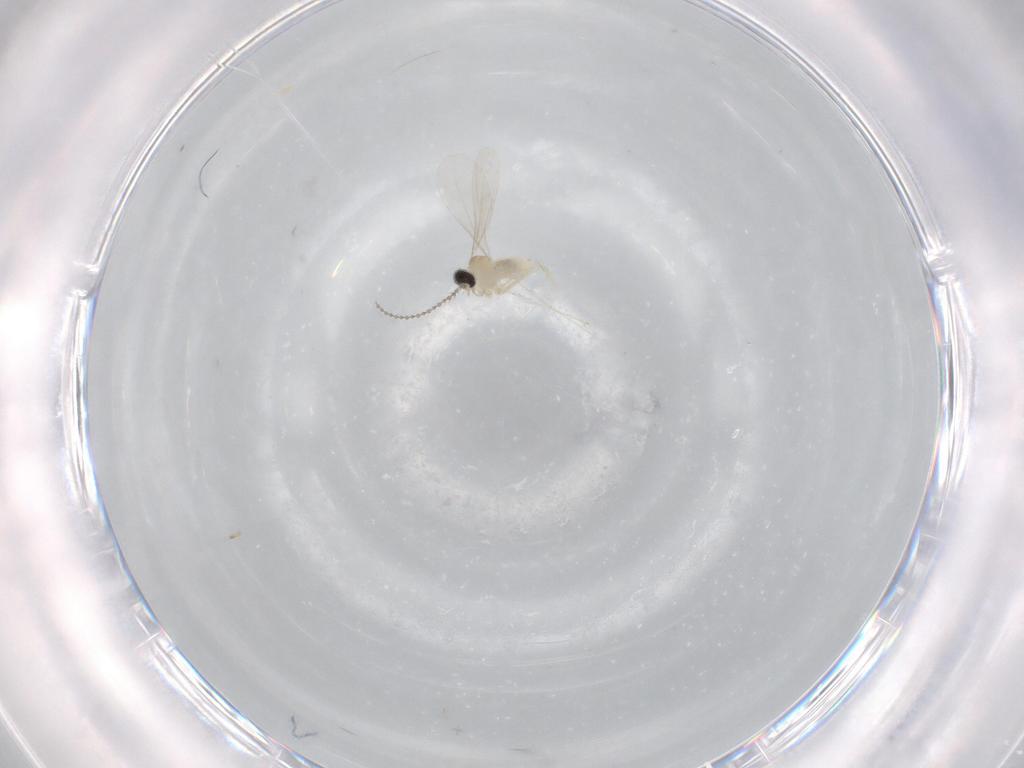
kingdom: Animalia
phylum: Arthropoda
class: Insecta
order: Diptera
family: Cecidomyiidae
